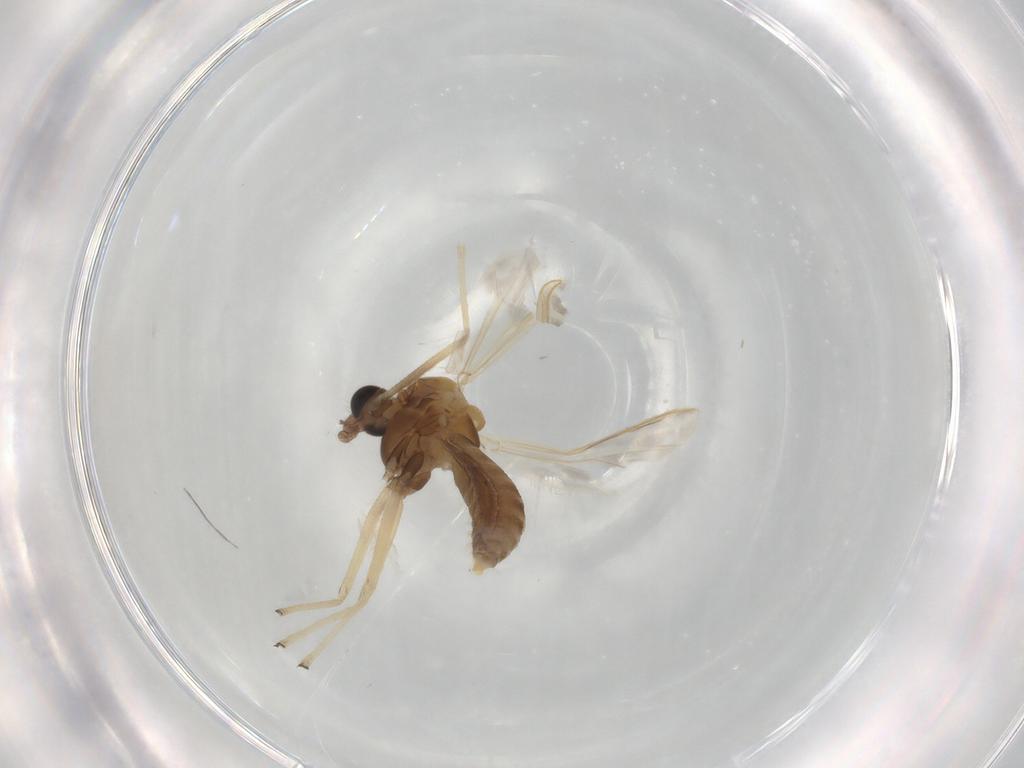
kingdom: Animalia
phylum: Arthropoda
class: Insecta
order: Diptera
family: Chironomidae
